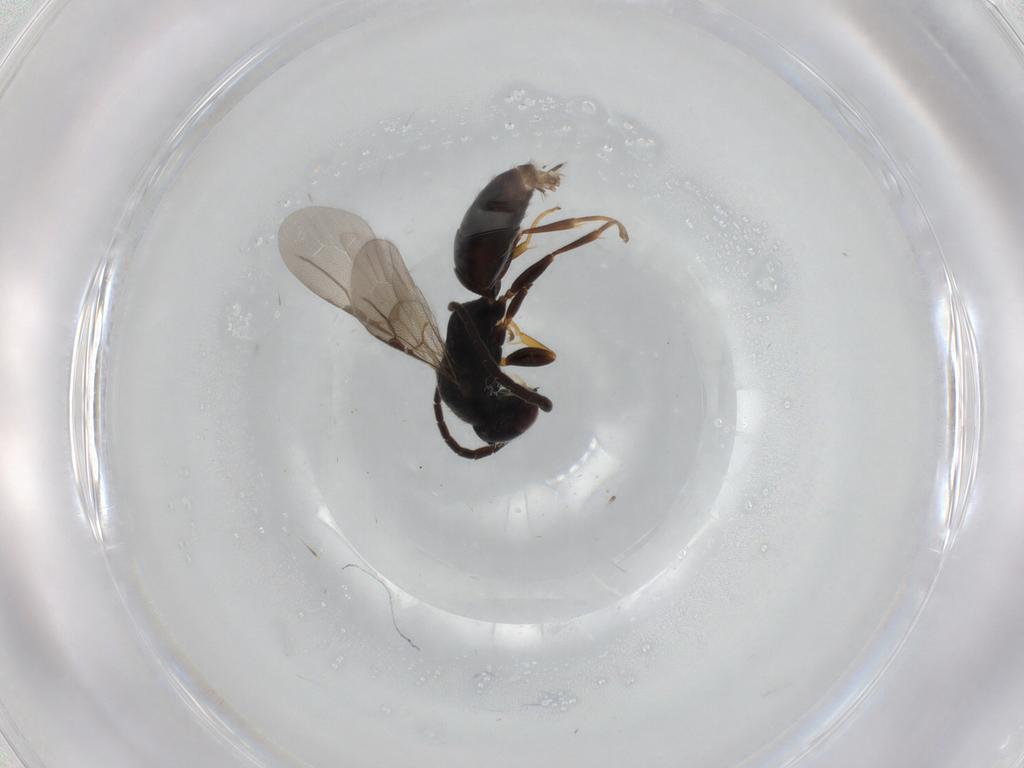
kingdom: Animalia
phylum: Arthropoda
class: Insecta
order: Hymenoptera
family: Bethylidae
